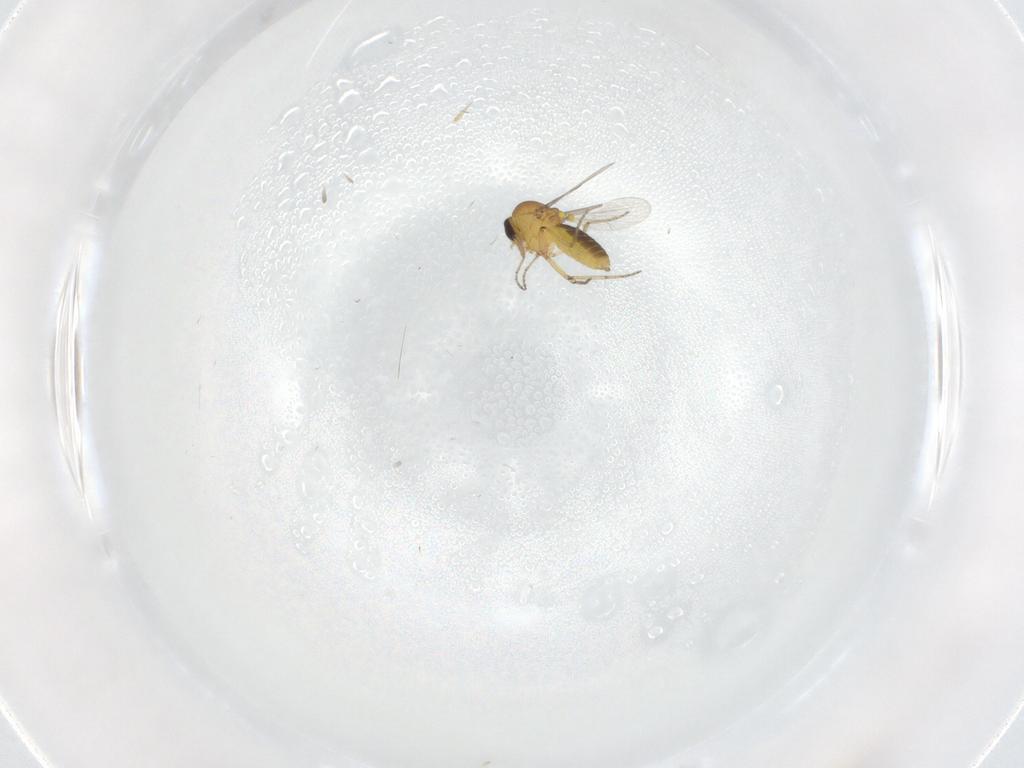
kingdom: Animalia
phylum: Arthropoda
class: Insecta
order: Diptera
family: Ceratopogonidae
